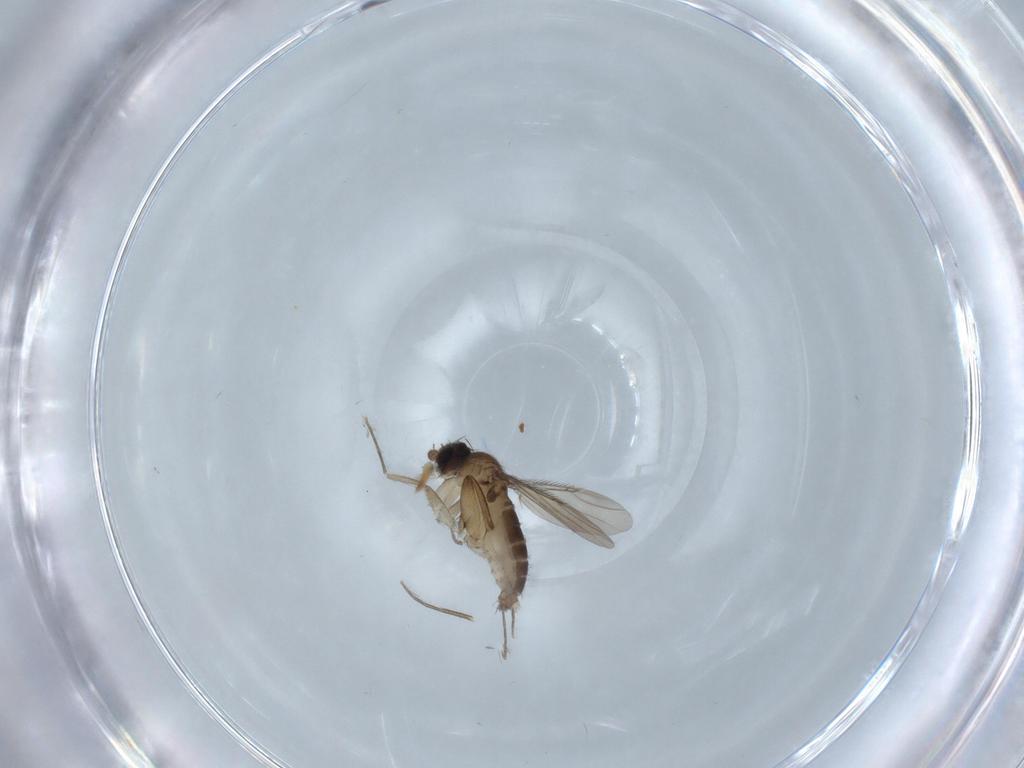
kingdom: Animalia
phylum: Arthropoda
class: Insecta
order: Diptera
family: Phoridae
